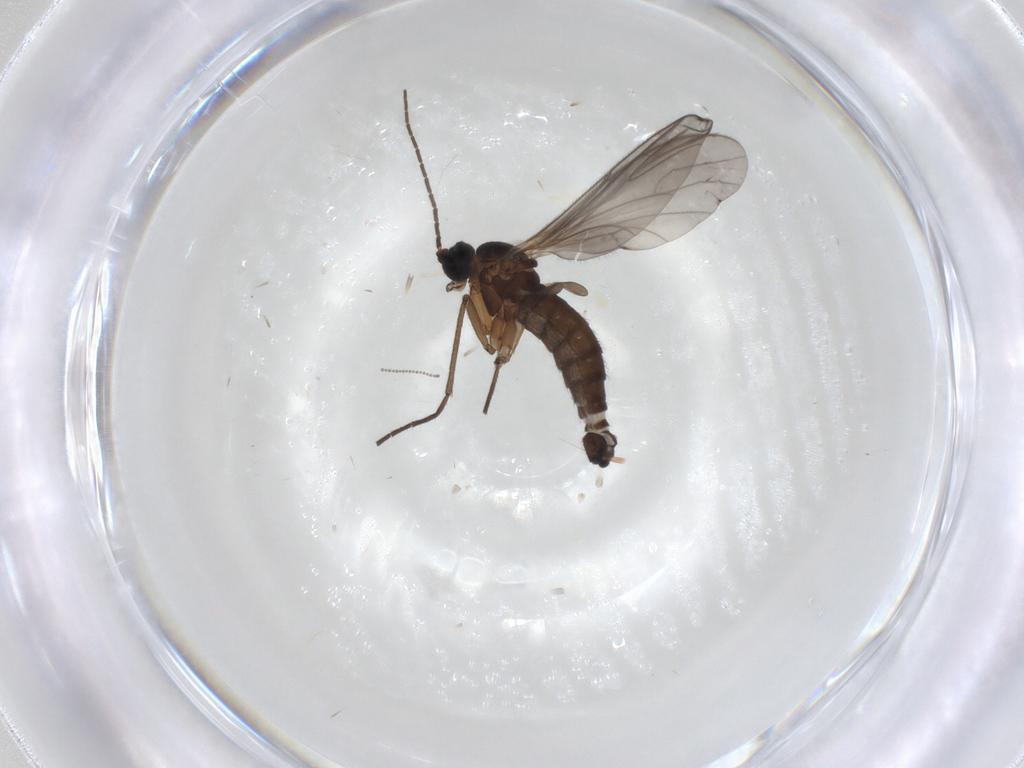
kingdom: Animalia
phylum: Arthropoda
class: Insecta
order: Diptera
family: Sciaridae
